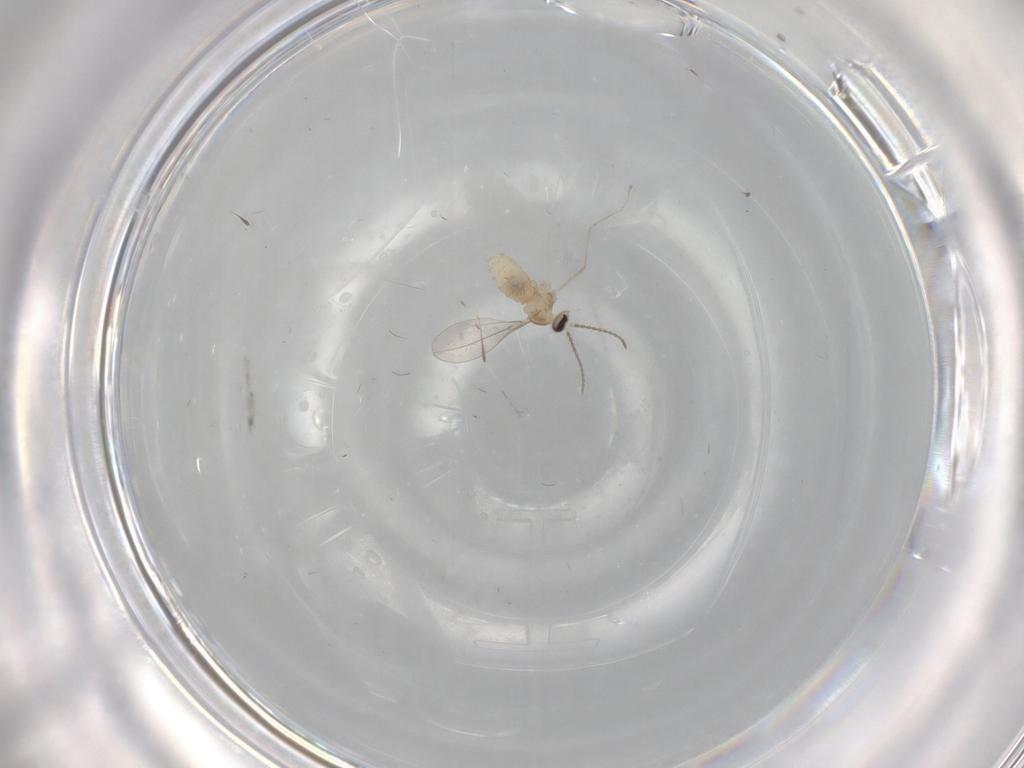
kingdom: Animalia
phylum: Arthropoda
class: Insecta
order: Diptera
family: Cecidomyiidae
